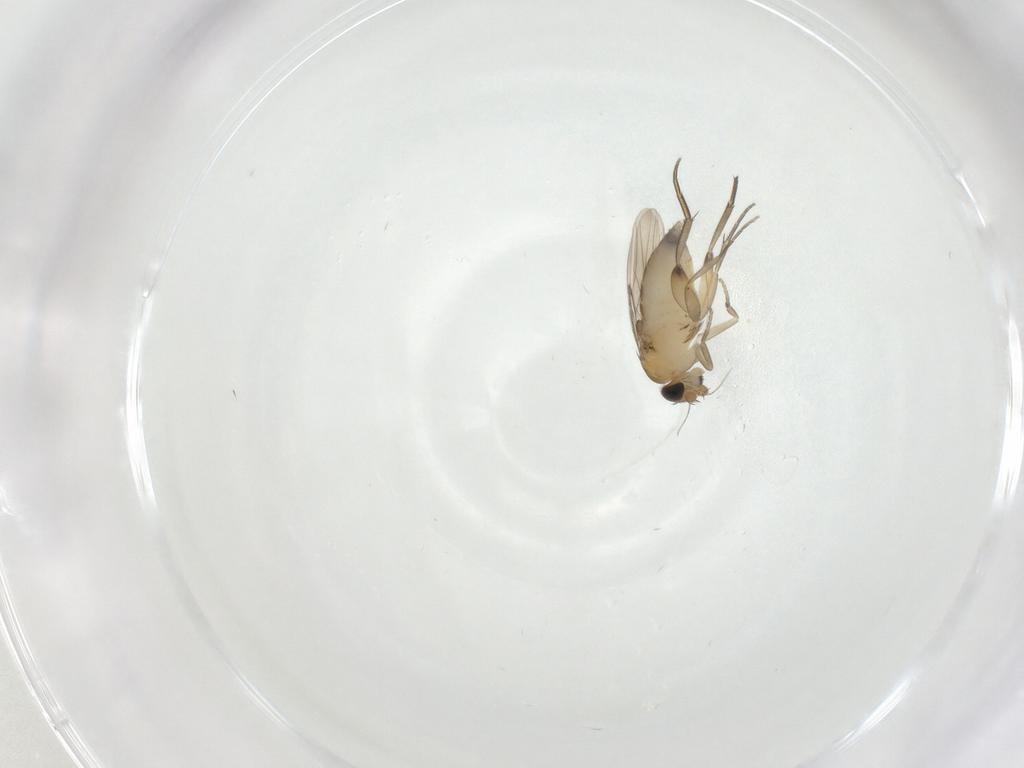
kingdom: Animalia
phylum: Arthropoda
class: Insecta
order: Diptera
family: Phoridae
